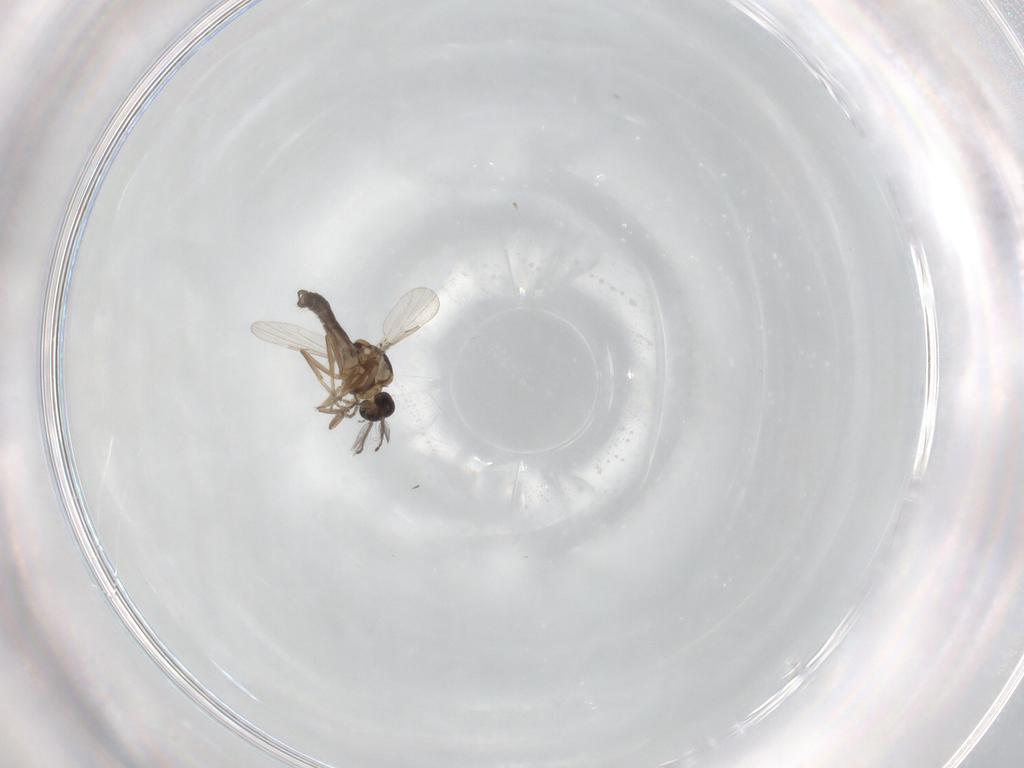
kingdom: Animalia
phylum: Arthropoda
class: Insecta
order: Diptera
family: Ceratopogonidae
